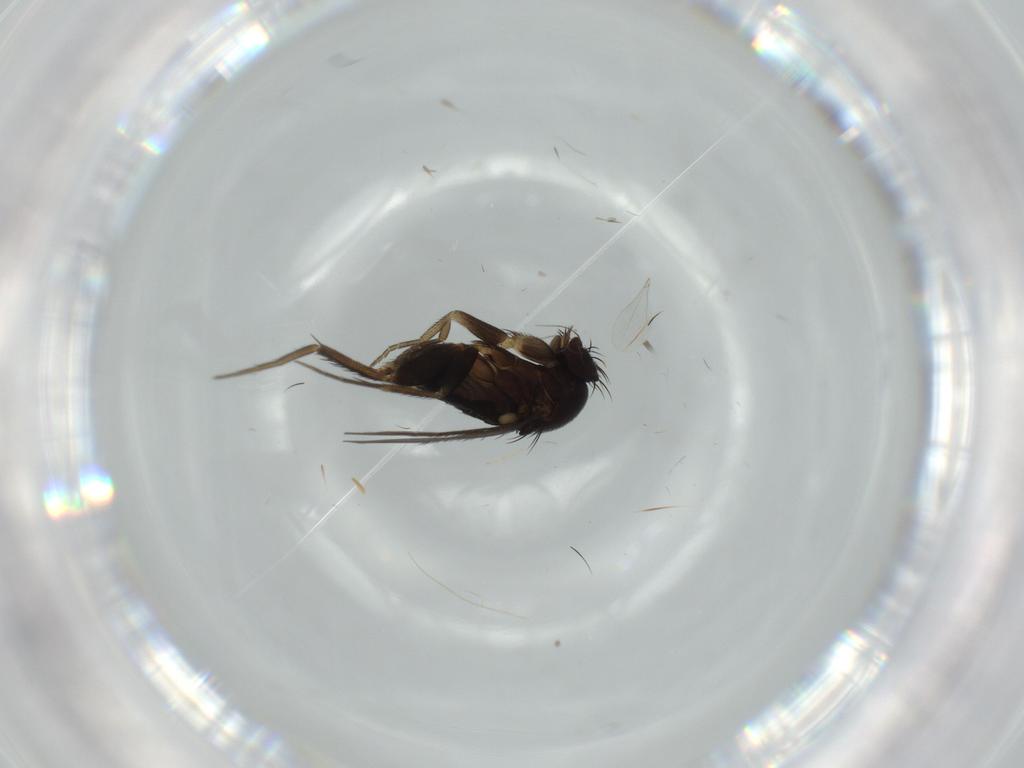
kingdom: Animalia
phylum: Arthropoda
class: Insecta
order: Diptera
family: Phoridae
